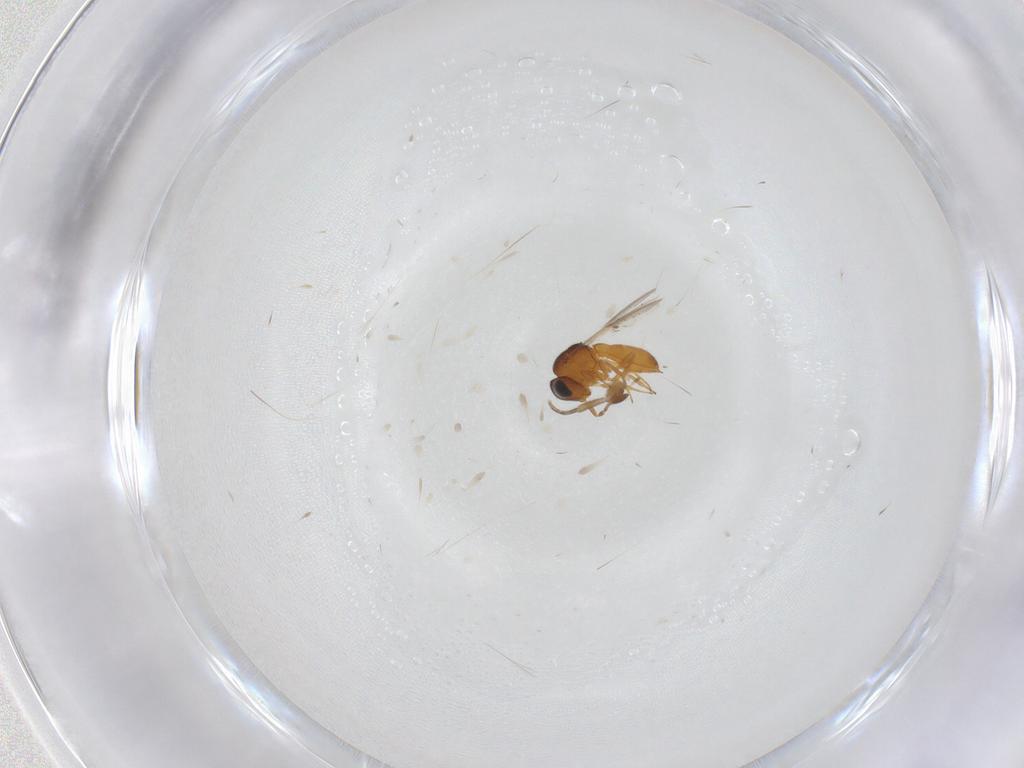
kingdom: Animalia
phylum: Arthropoda
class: Insecta
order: Hymenoptera
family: Scelionidae
